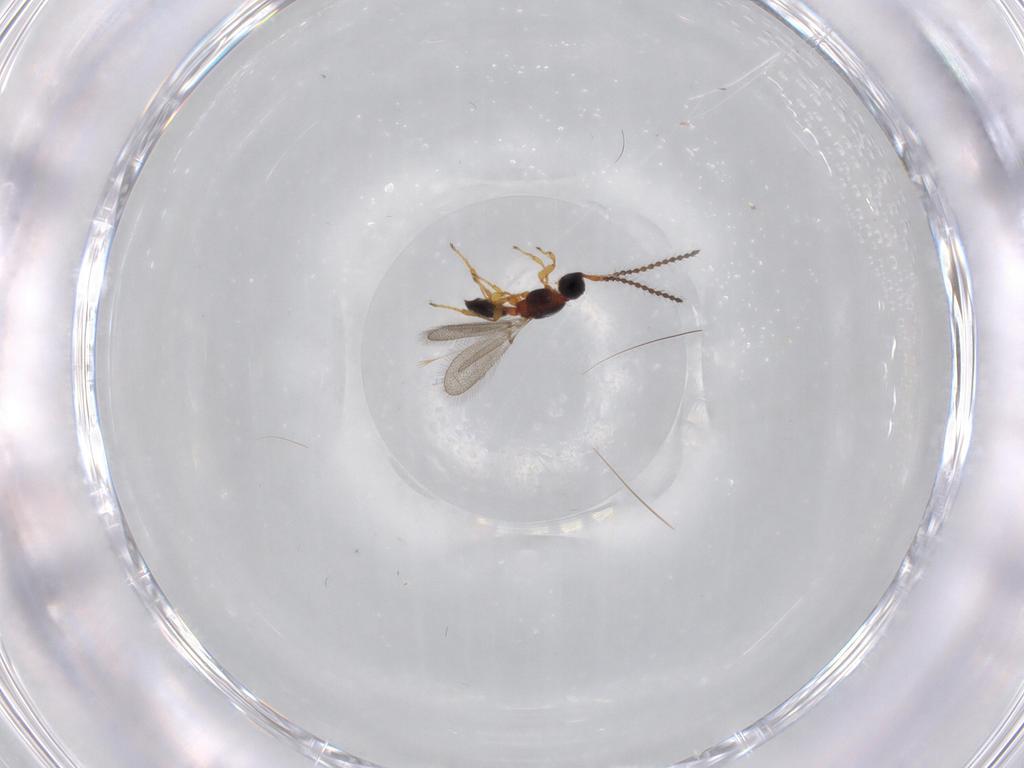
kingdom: Animalia
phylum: Arthropoda
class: Insecta
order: Hymenoptera
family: Diapriidae
